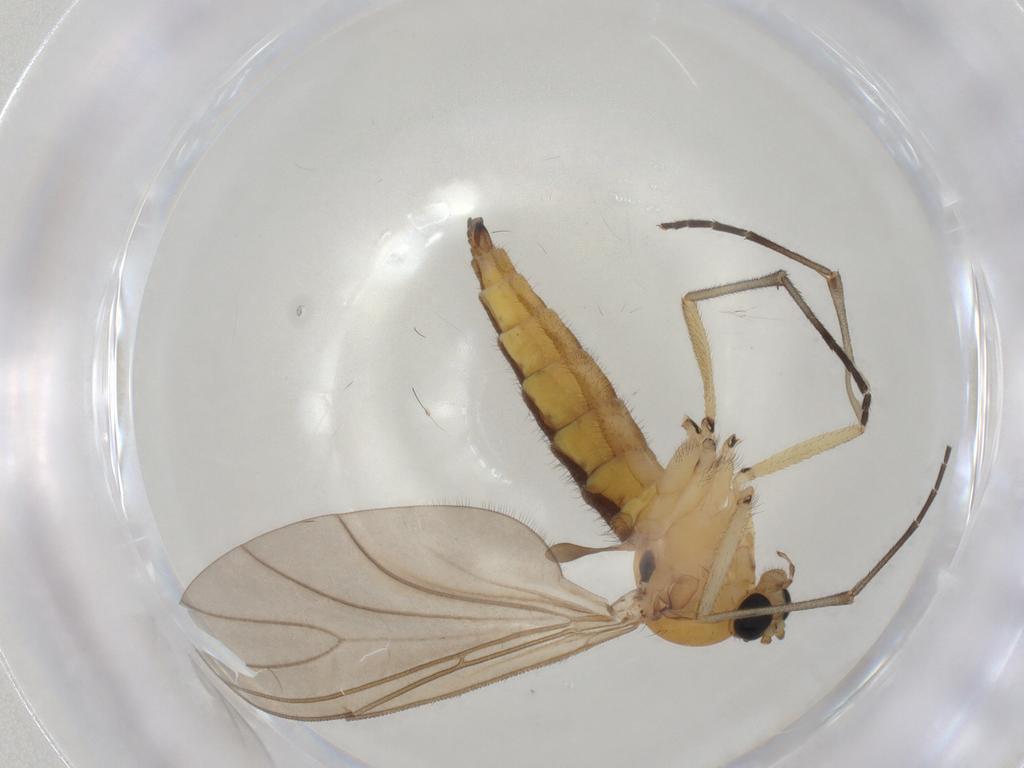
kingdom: Animalia
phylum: Arthropoda
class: Insecta
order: Diptera
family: Sciaridae
